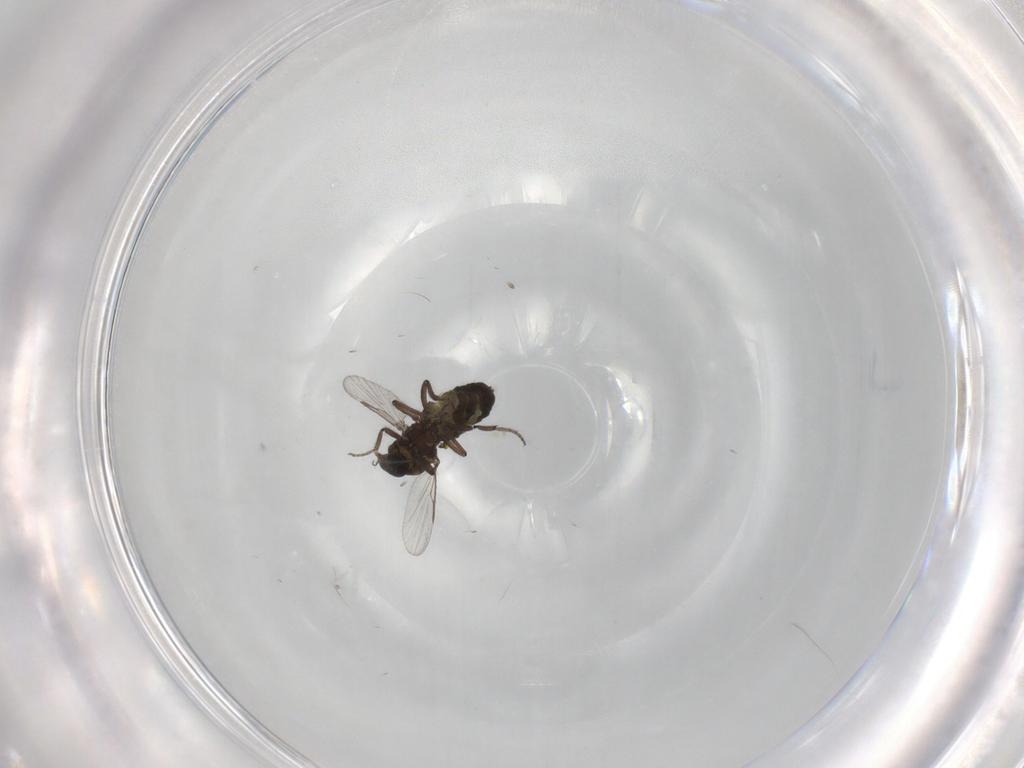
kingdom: Animalia
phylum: Arthropoda
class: Insecta
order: Diptera
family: Ceratopogonidae
